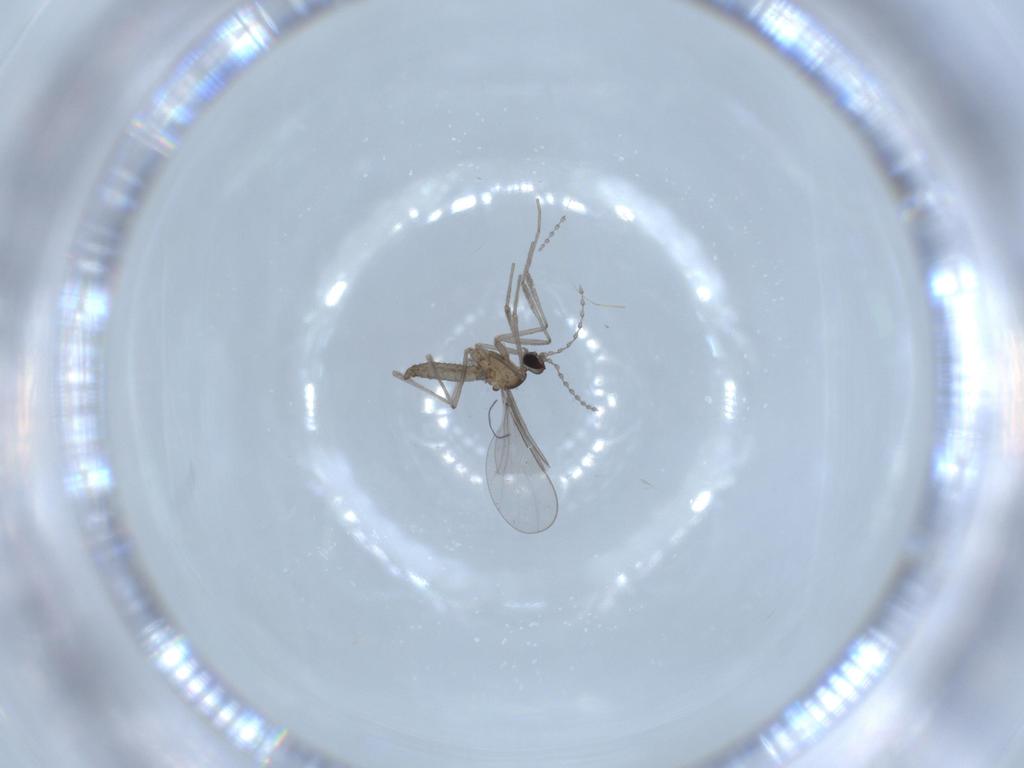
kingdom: Animalia
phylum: Arthropoda
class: Insecta
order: Diptera
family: Cecidomyiidae
